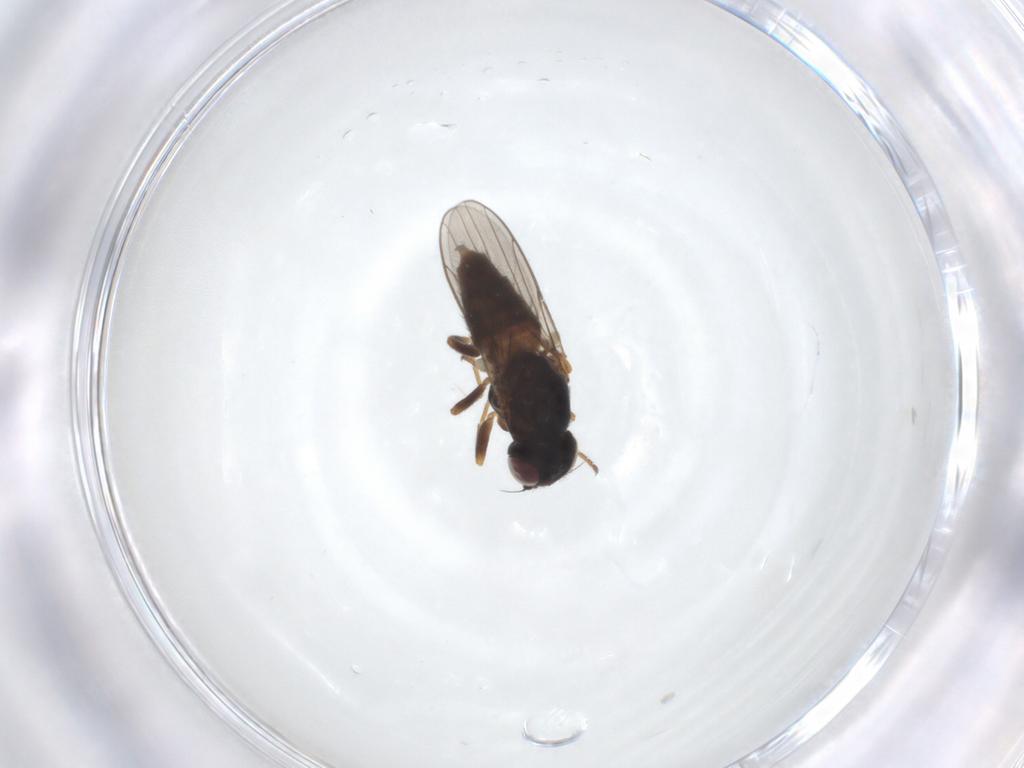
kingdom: Animalia
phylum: Arthropoda
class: Insecta
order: Diptera
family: Chloropidae
